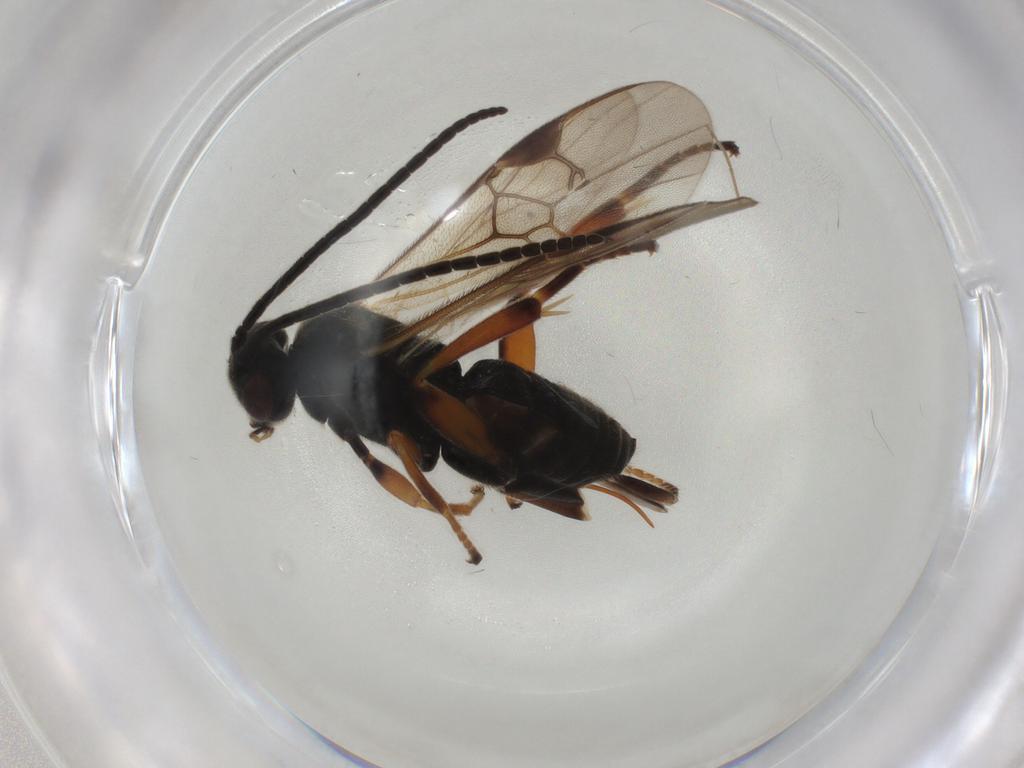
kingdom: Animalia
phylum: Arthropoda
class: Insecta
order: Hymenoptera
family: Braconidae
